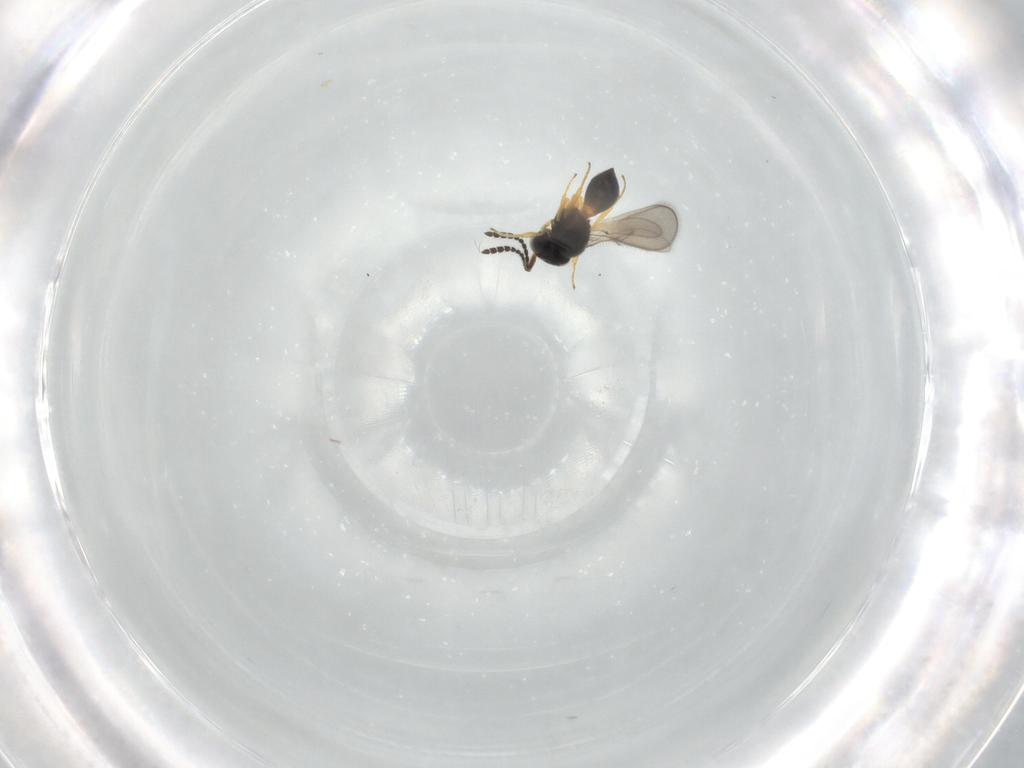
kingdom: Animalia
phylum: Arthropoda
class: Insecta
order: Hymenoptera
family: Scelionidae
